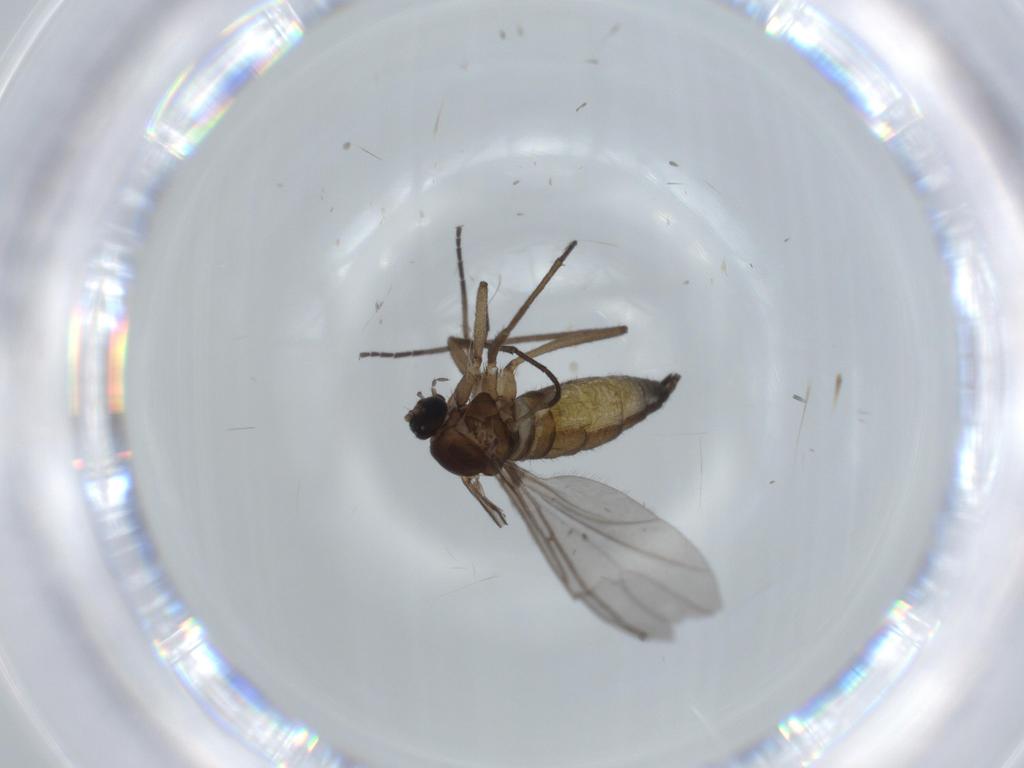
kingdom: Animalia
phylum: Arthropoda
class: Insecta
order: Diptera
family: Sciaridae
